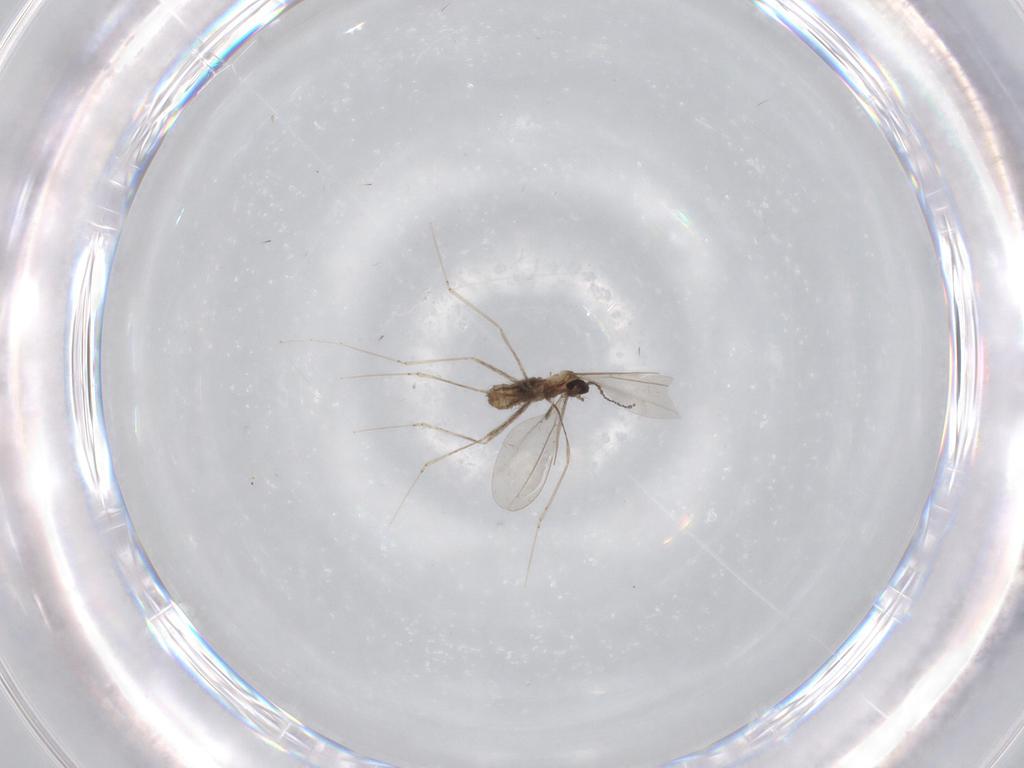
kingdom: Animalia
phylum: Arthropoda
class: Insecta
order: Diptera
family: Cecidomyiidae
